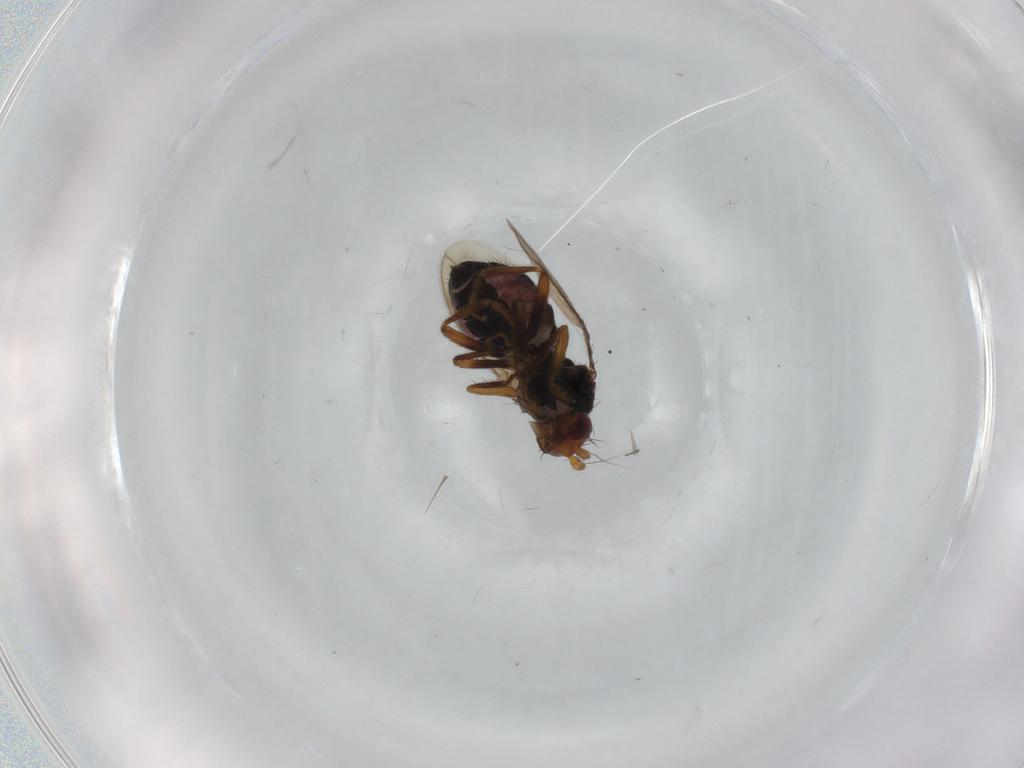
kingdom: Animalia
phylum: Arthropoda
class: Insecta
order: Diptera
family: Sphaeroceridae
